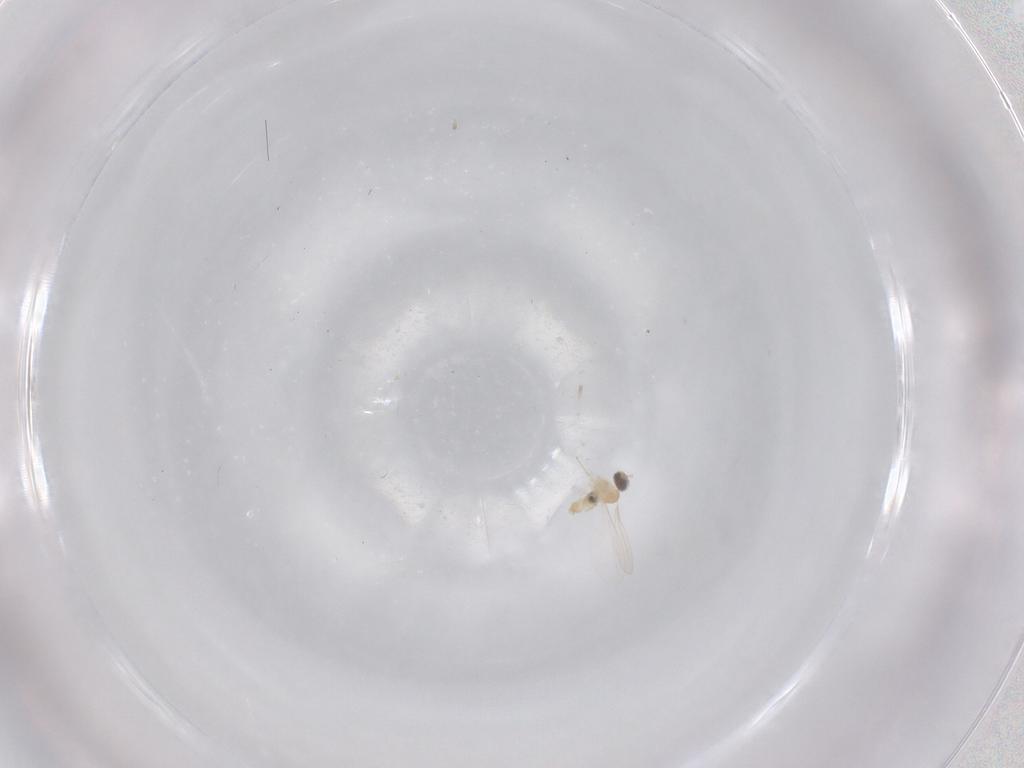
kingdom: Animalia
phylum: Arthropoda
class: Insecta
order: Diptera
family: Cecidomyiidae
